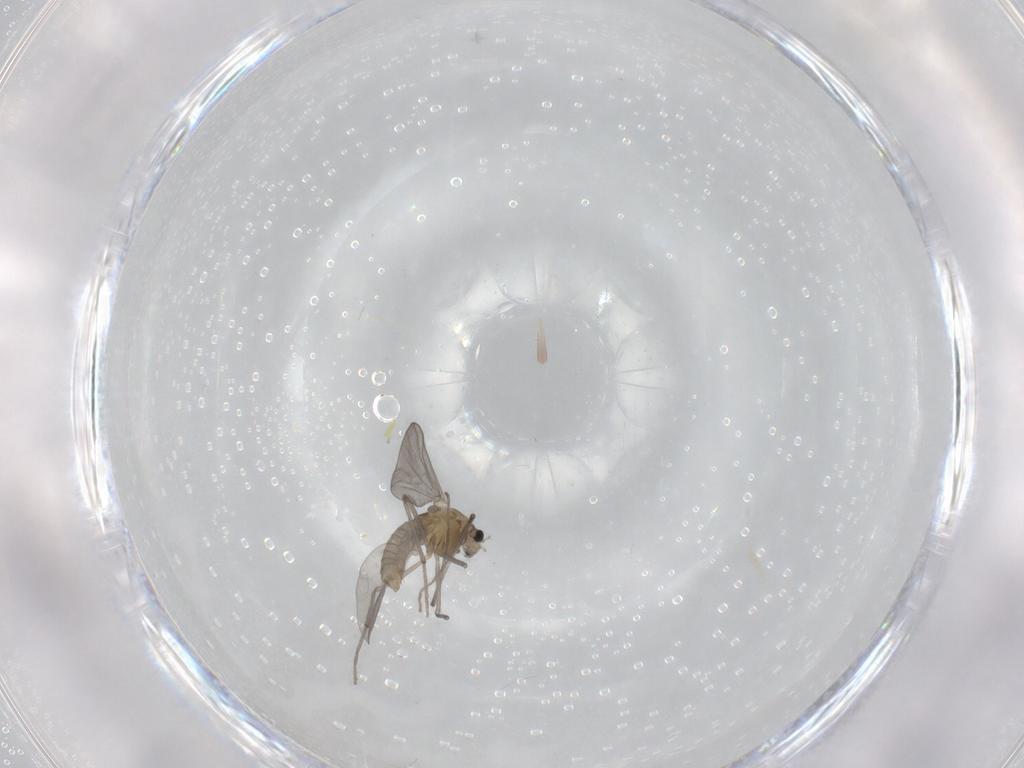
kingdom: Animalia
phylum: Arthropoda
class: Insecta
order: Diptera
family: Chironomidae
